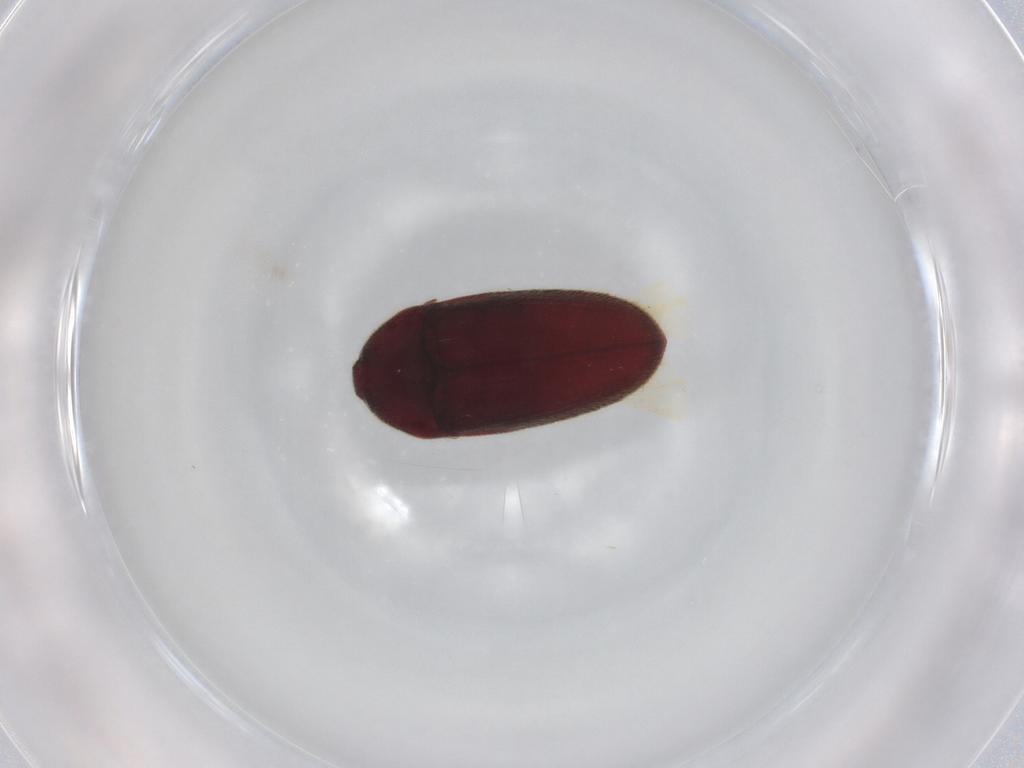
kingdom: Animalia
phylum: Arthropoda
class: Insecta
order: Coleoptera
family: Throscidae
